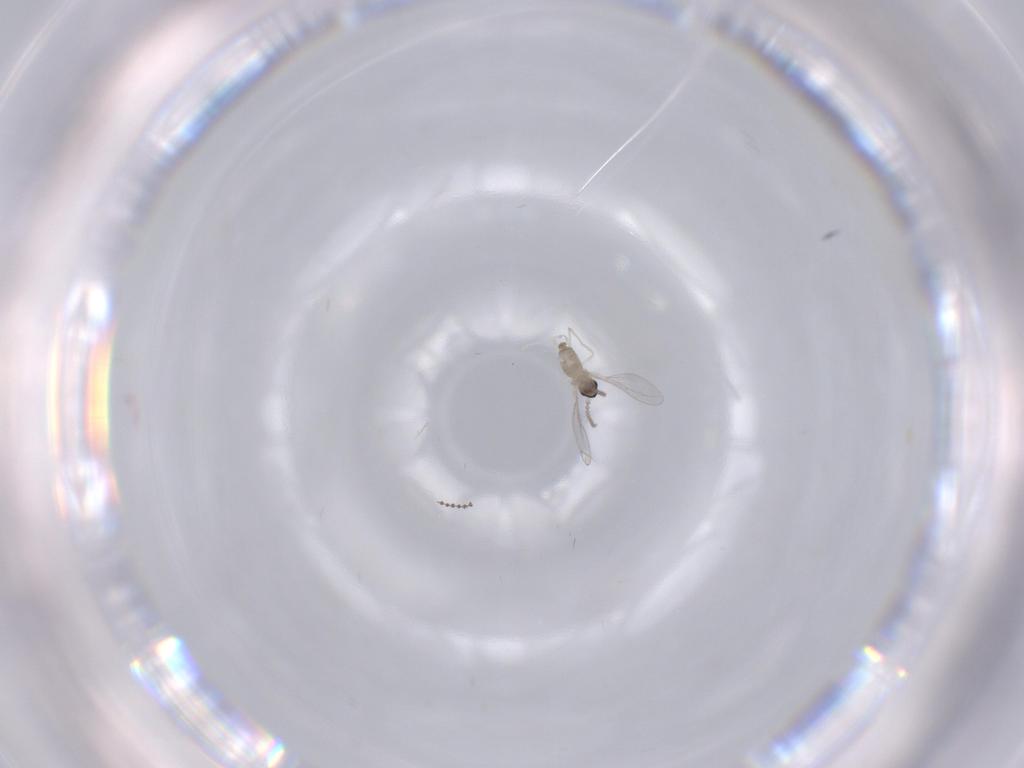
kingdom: Animalia
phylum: Arthropoda
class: Insecta
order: Diptera
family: Cecidomyiidae
